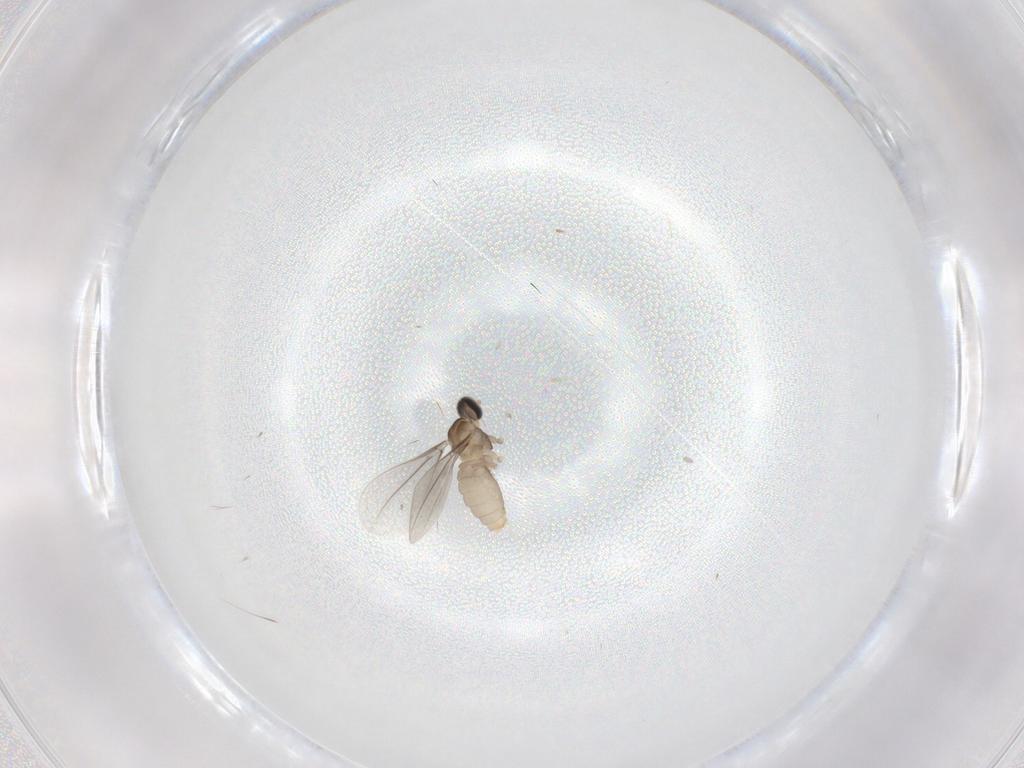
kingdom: Animalia
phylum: Arthropoda
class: Insecta
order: Diptera
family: Cecidomyiidae
